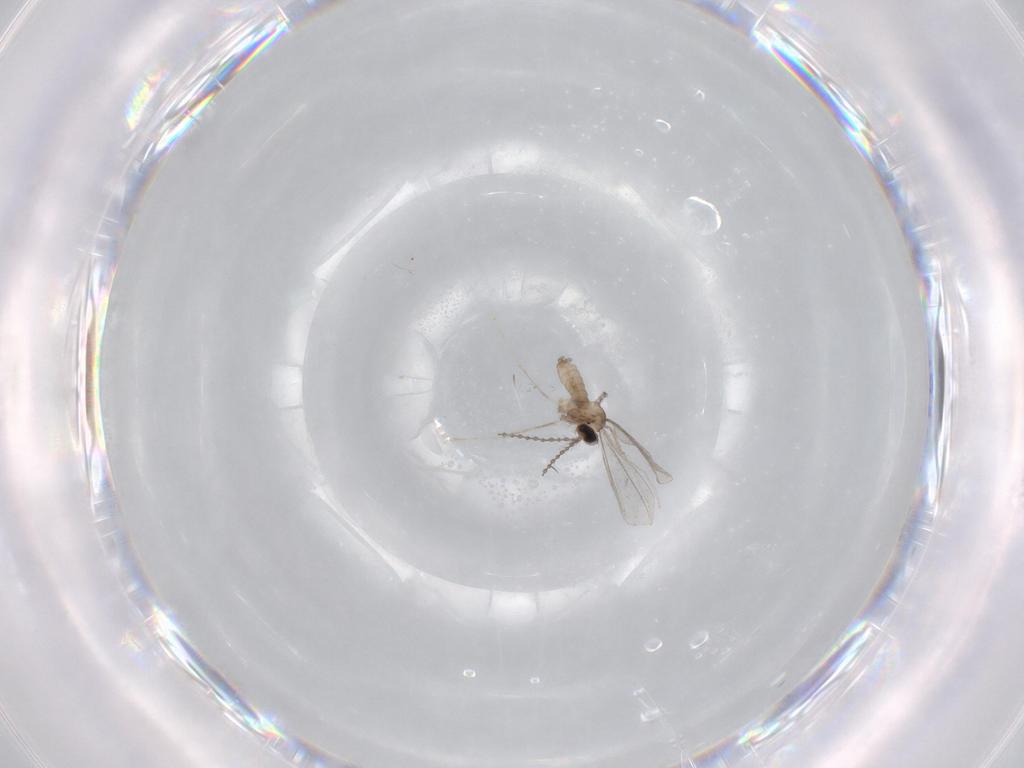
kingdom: Animalia
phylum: Arthropoda
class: Insecta
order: Diptera
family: Cecidomyiidae
